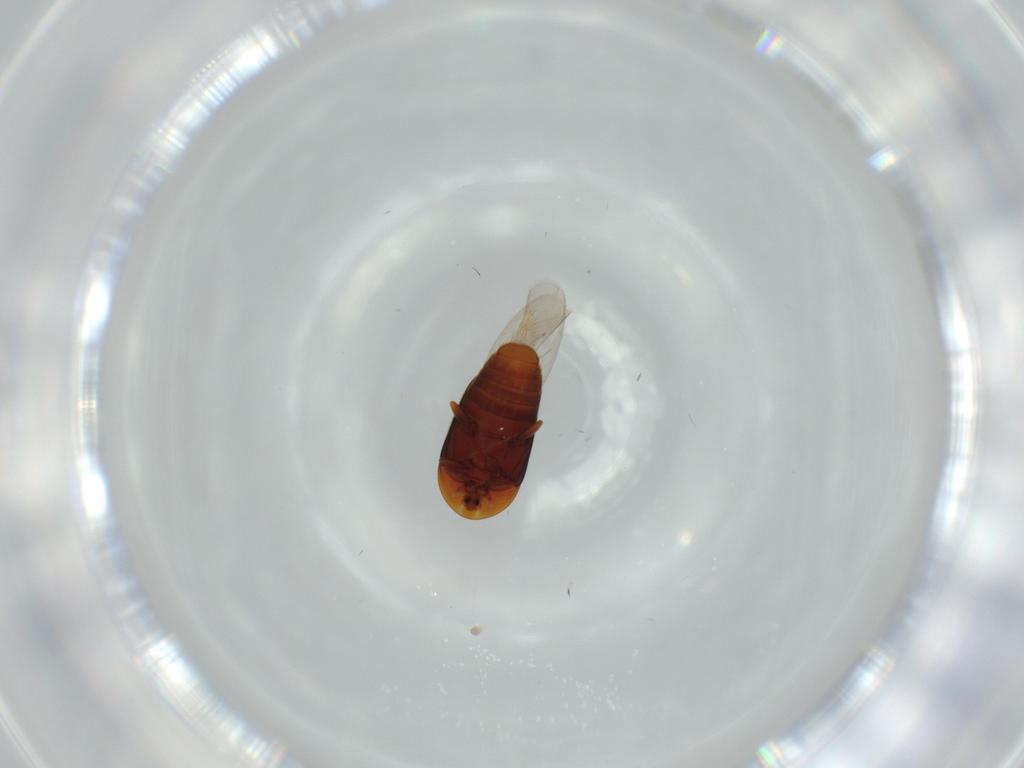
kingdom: Animalia
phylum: Arthropoda
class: Insecta
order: Coleoptera
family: Corylophidae
